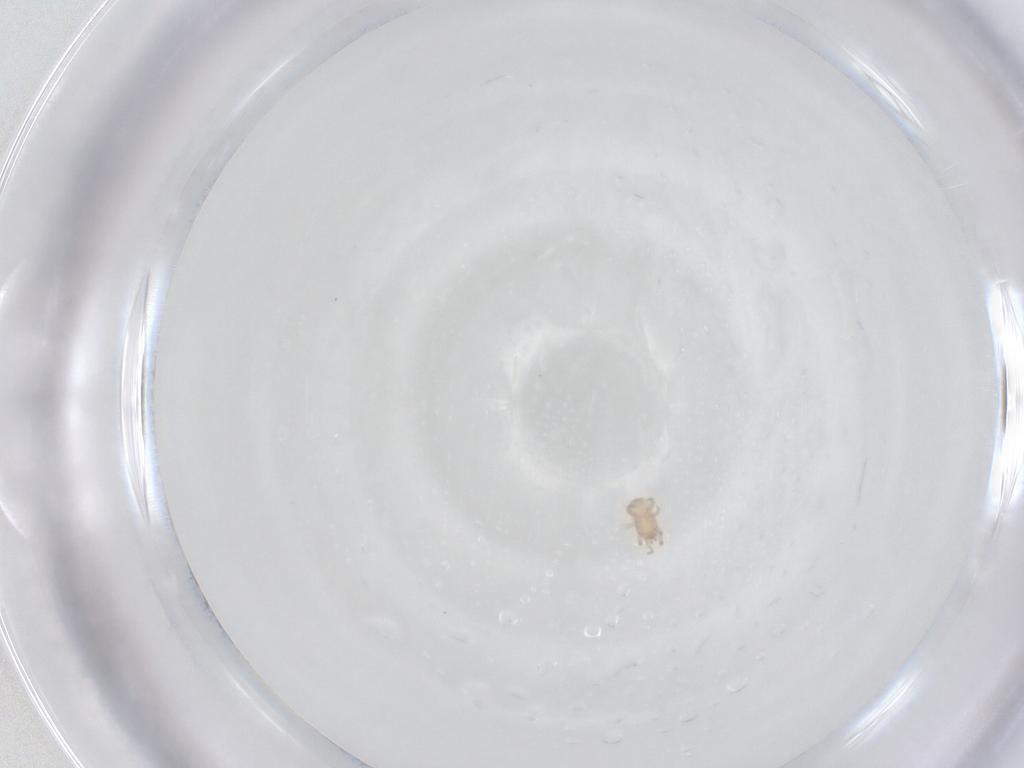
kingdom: Animalia
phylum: Arthropoda
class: Arachnida
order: Mesostigmata
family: Digamasellidae
